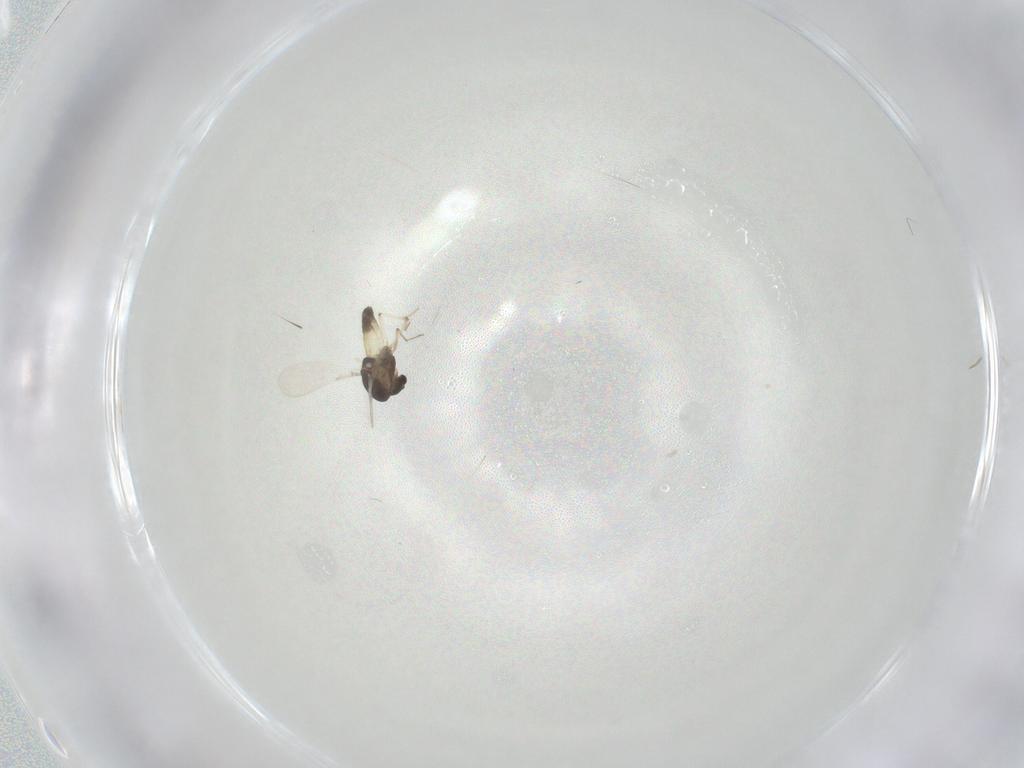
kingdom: Animalia
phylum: Arthropoda
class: Insecta
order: Diptera
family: Chironomidae
